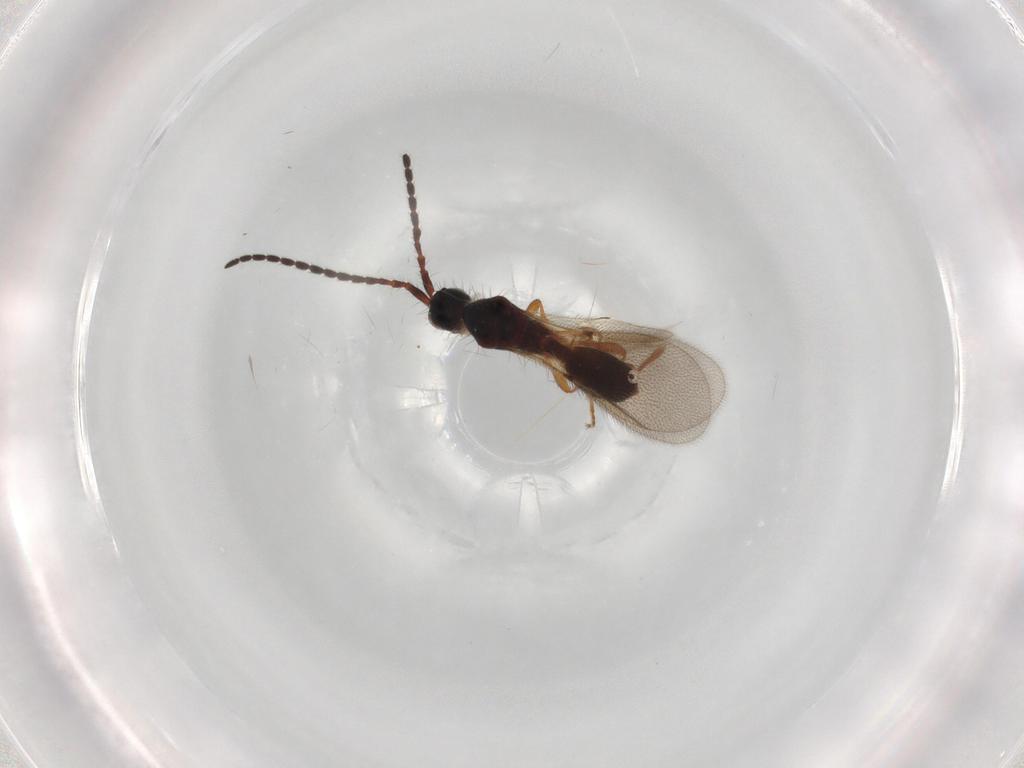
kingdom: Animalia
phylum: Arthropoda
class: Insecta
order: Hymenoptera
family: Diapriidae
